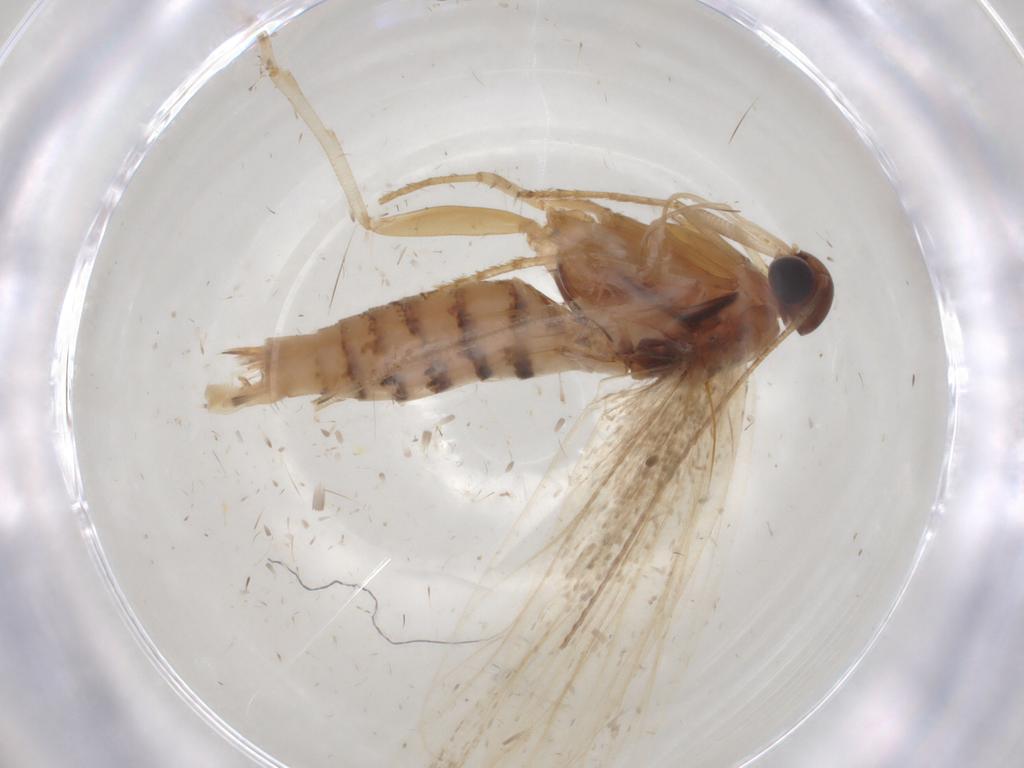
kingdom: Animalia
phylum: Arthropoda
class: Insecta
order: Lepidoptera
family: Gelechiidae
